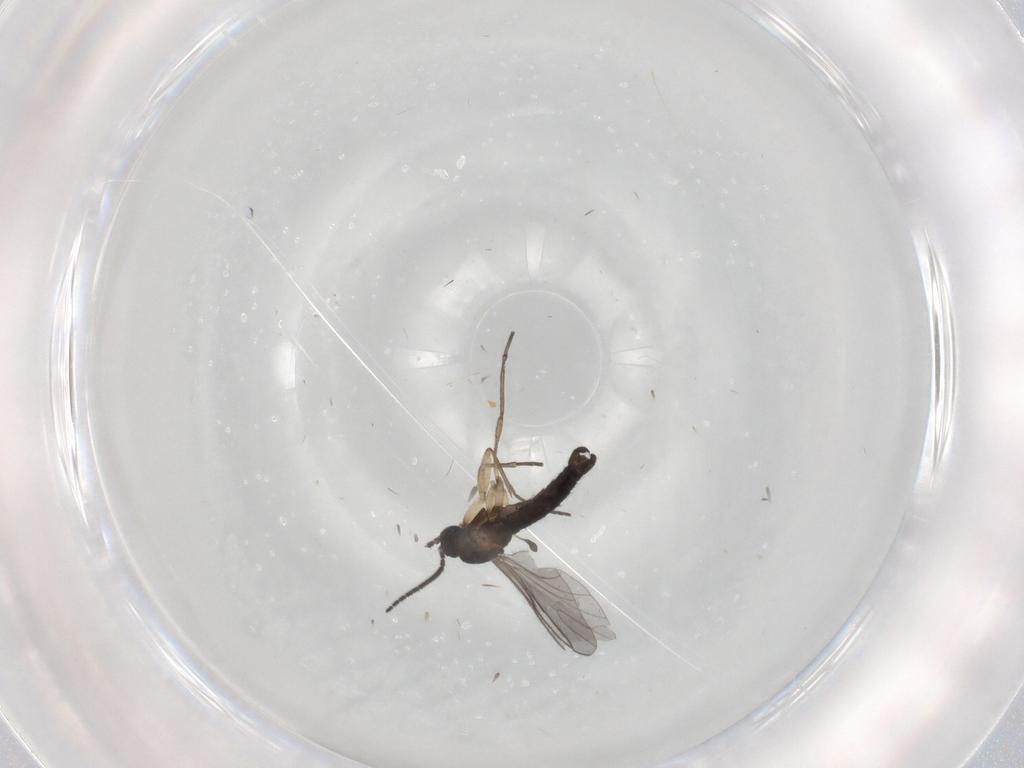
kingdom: Animalia
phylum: Arthropoda
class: Insecta
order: Diptera
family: Sciaridae
